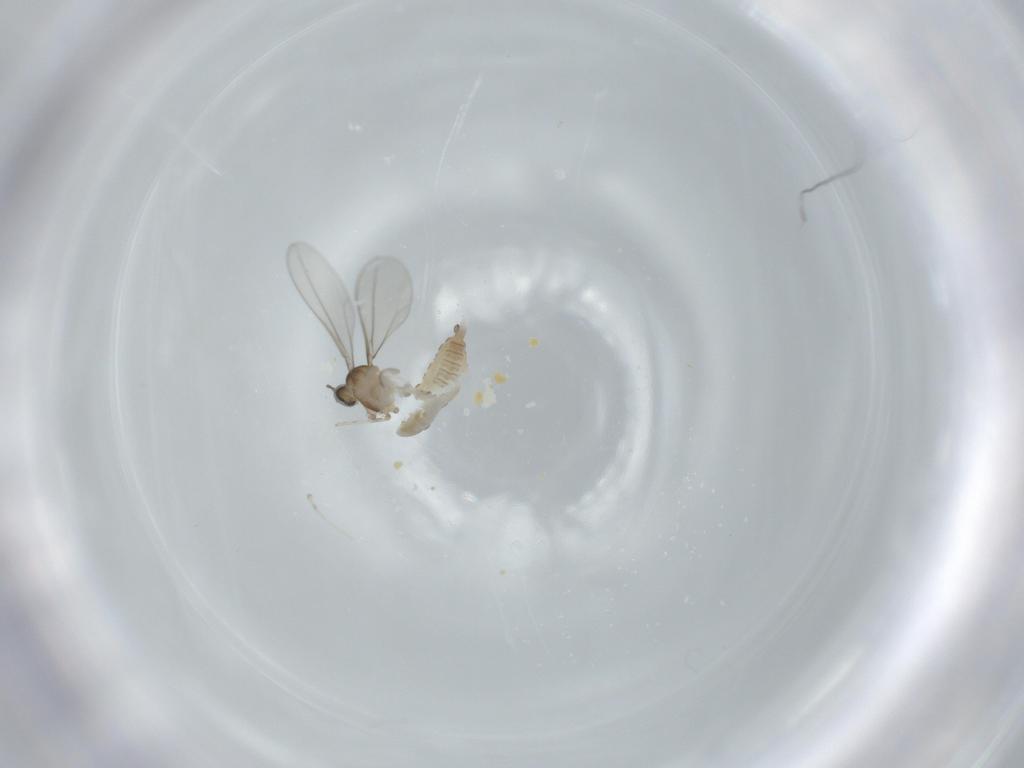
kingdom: Animalia
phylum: Arthropoda
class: Insecta
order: Diptera
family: Cecidomyiidae
